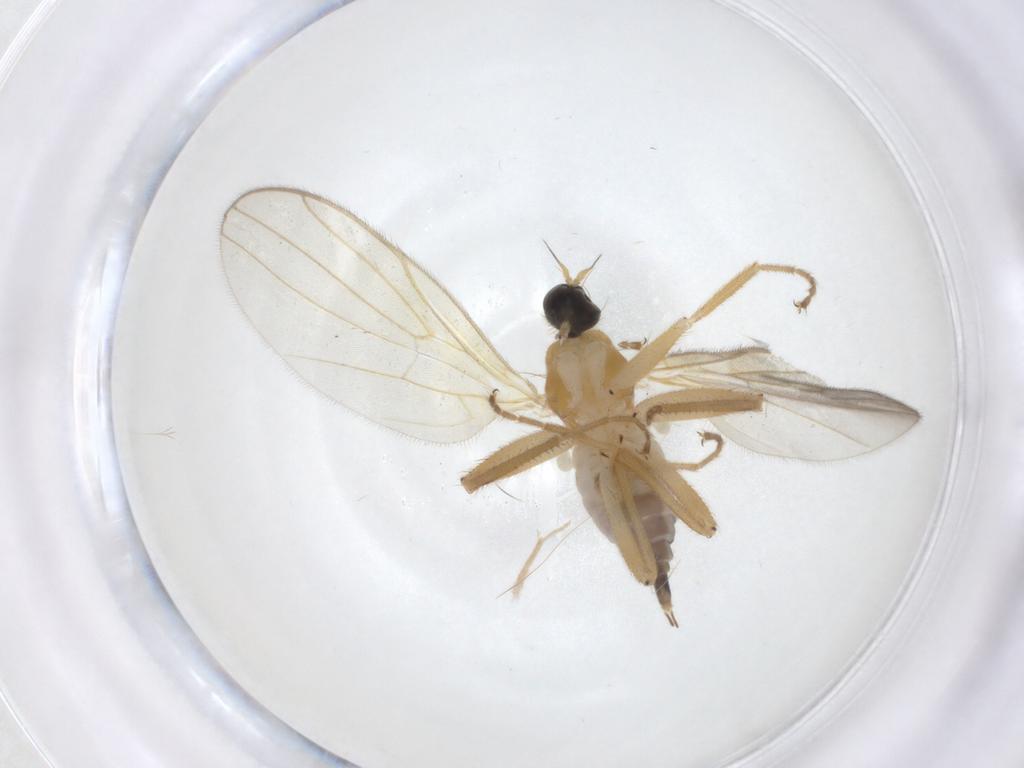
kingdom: Animalia
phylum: Arthropoda
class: Insecta
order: Diptera
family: Hybotidae
